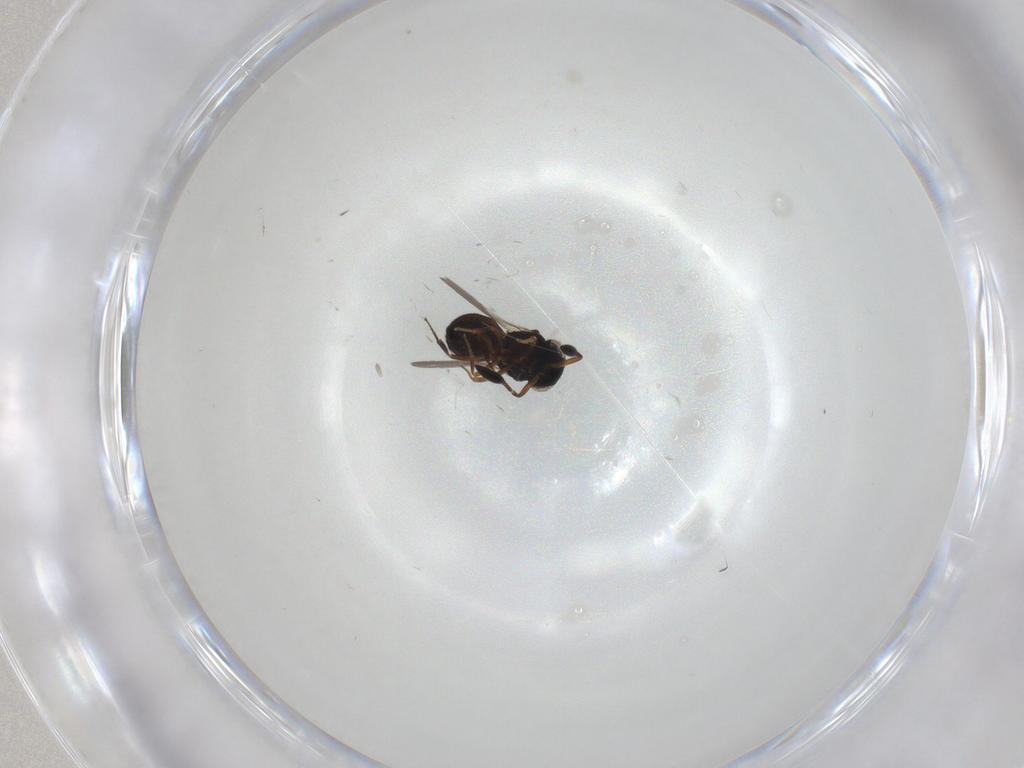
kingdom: Animalia
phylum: Arthropoda
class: Insecta
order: Hymenoptera
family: Scelionidae
